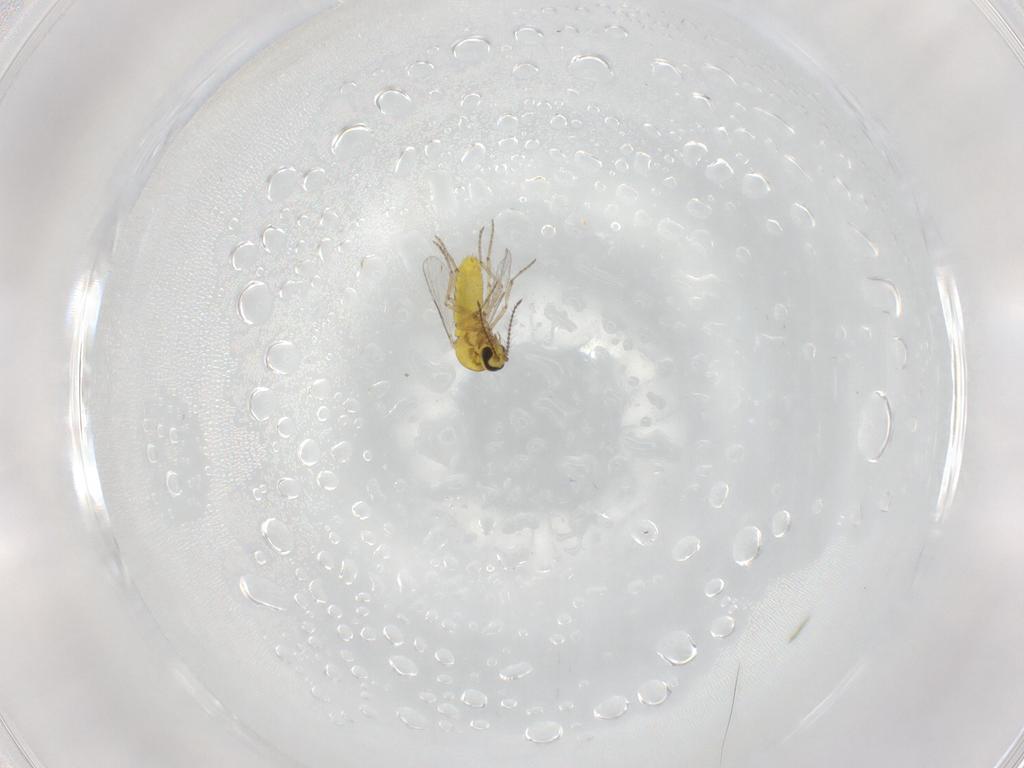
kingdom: Animalia
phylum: Arthropoda
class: Insecta
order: Diptera
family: Ceratopogonidae
